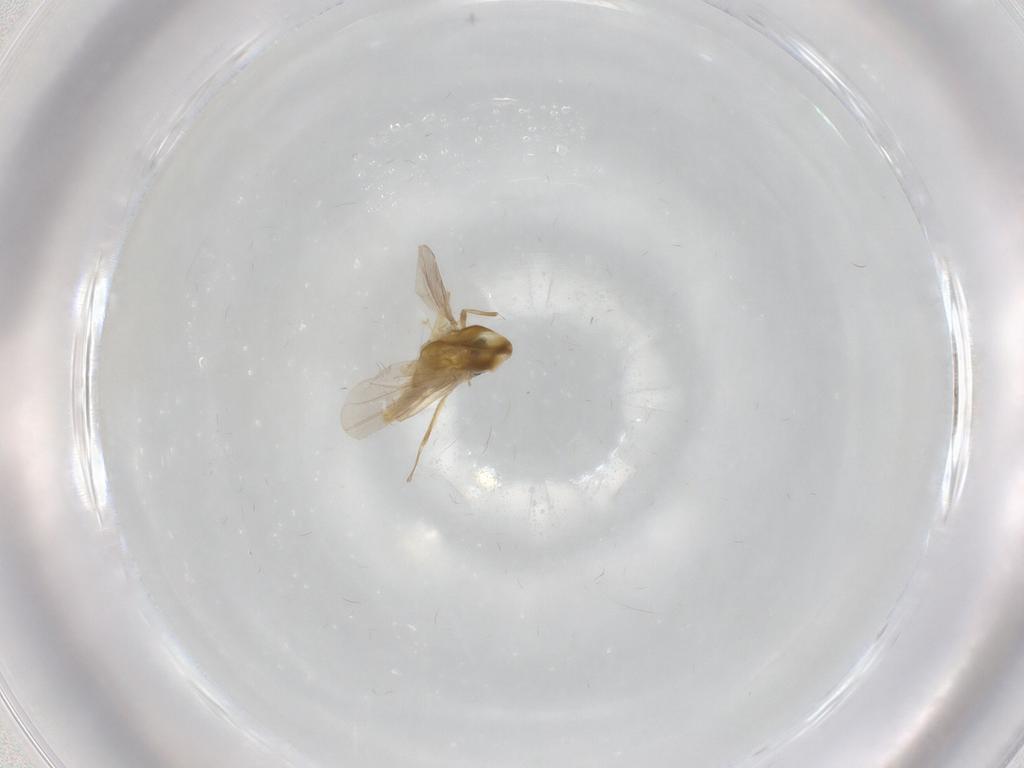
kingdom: Animalia
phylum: Arthropoda
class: Insecta
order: Diptera
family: Chironomidae
